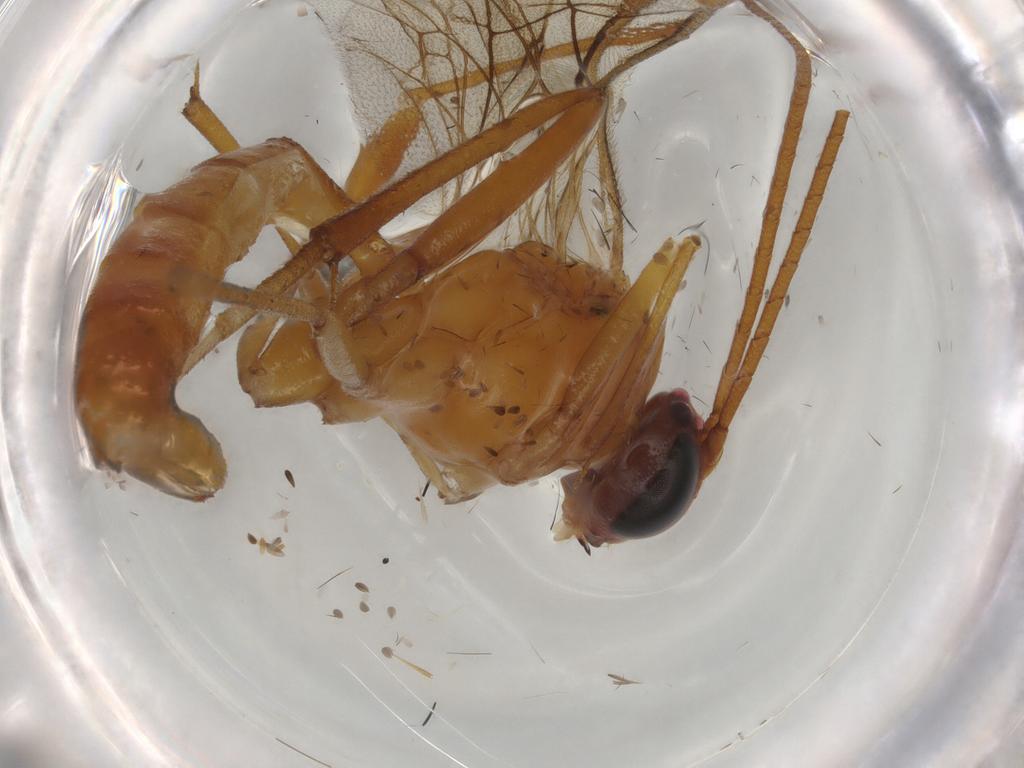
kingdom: Animalia
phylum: Arthropoda
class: Insecta
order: Hymenoptera
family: Ichneumonidae
